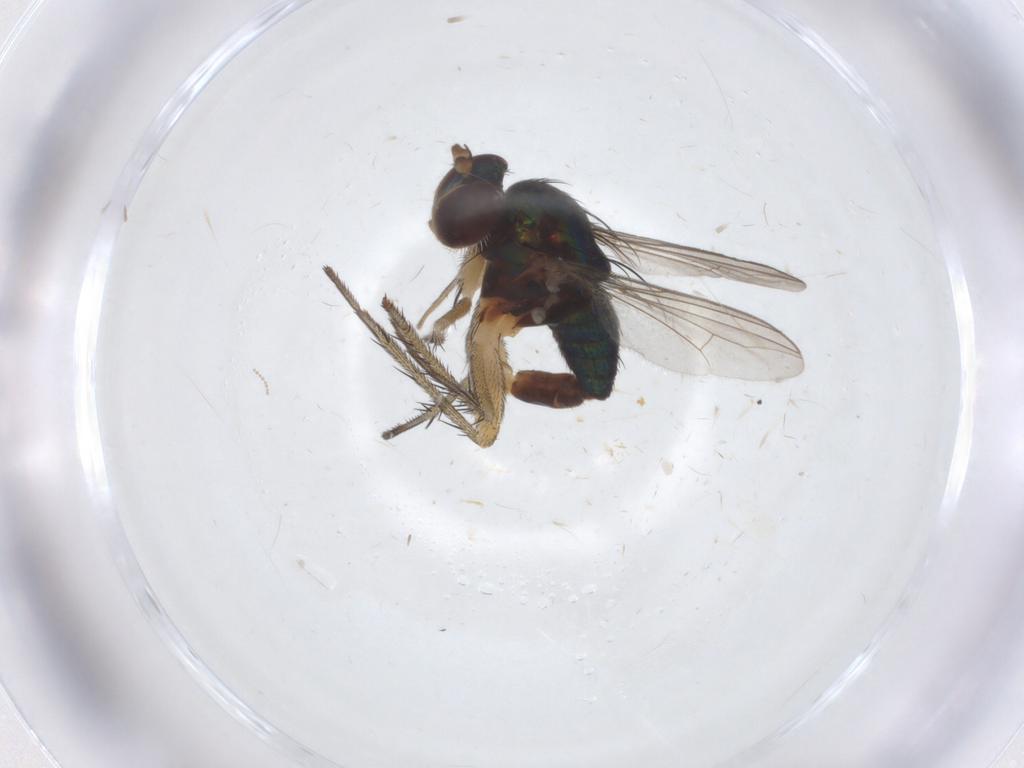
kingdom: Animalia
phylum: Arthropoda
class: Insecta
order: Diptera
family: Dolichopodidae
